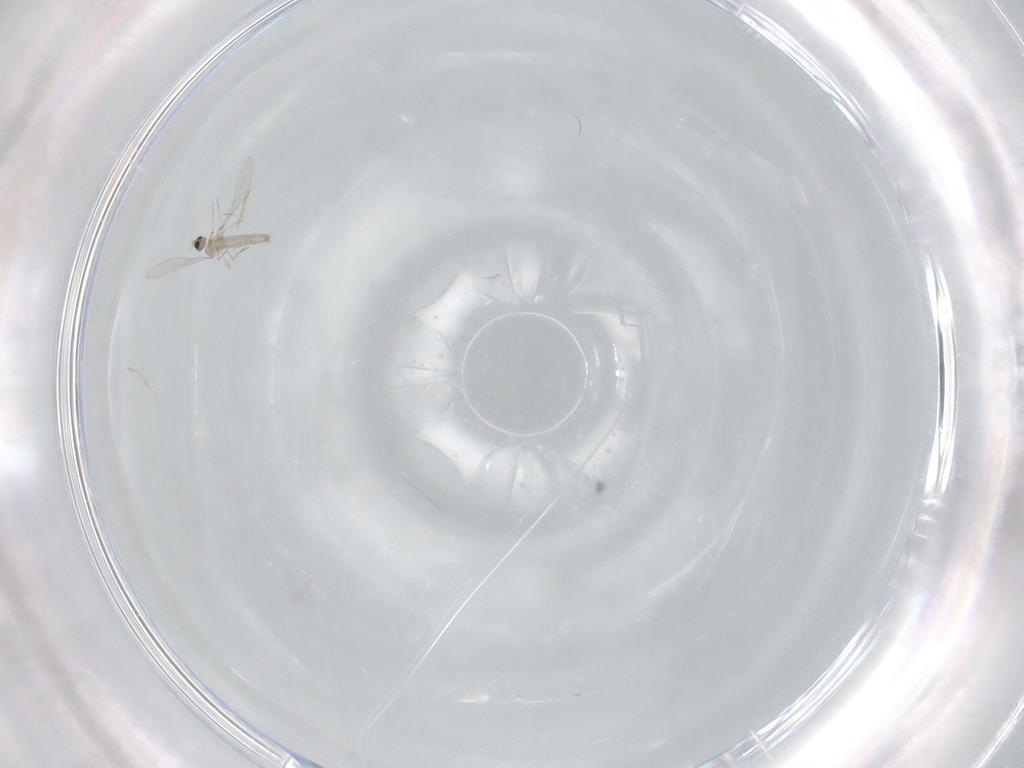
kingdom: Animalia
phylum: Arthropoda
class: Insecta
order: Diptera
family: Cecidomyiidae
